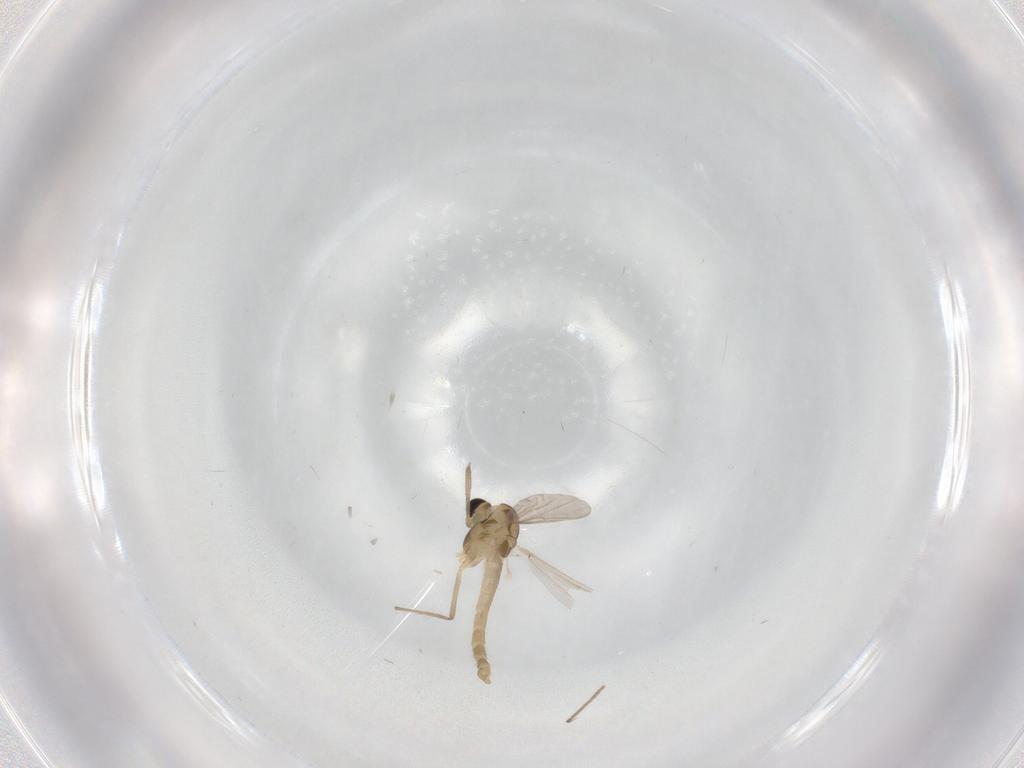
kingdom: Animalia
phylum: Arthropoda
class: Insecta
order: Diptera
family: Chironomidae
